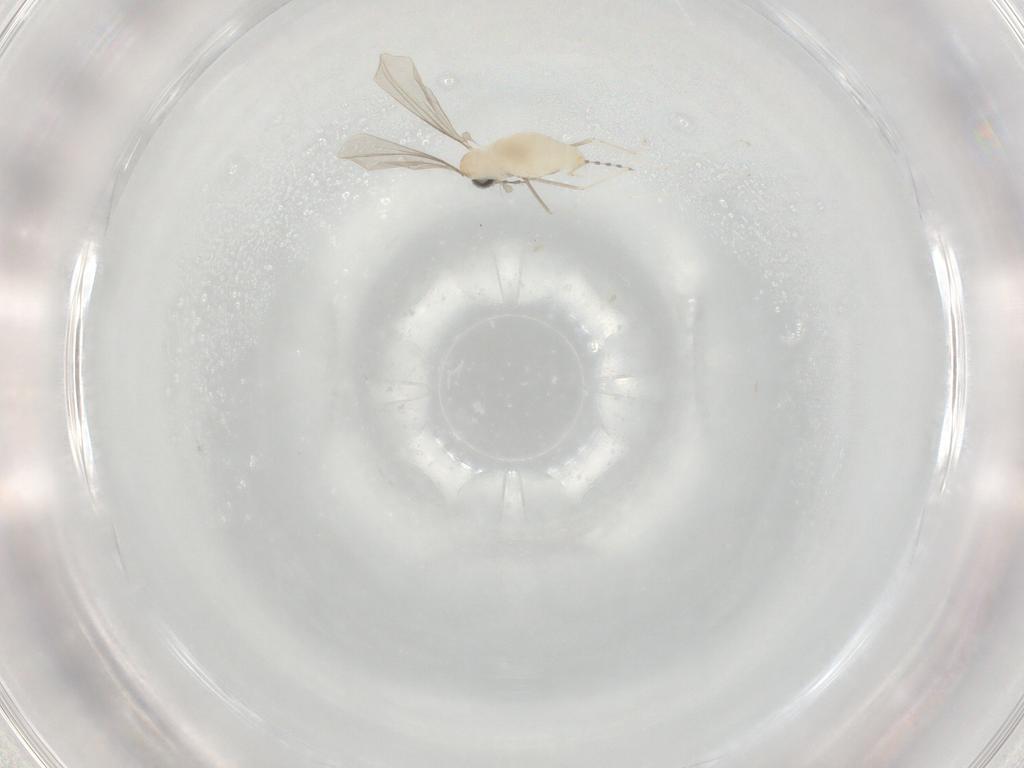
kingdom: Animalia
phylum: Arthropoda
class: Insecta
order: Diptera
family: Cecidomyiidae
